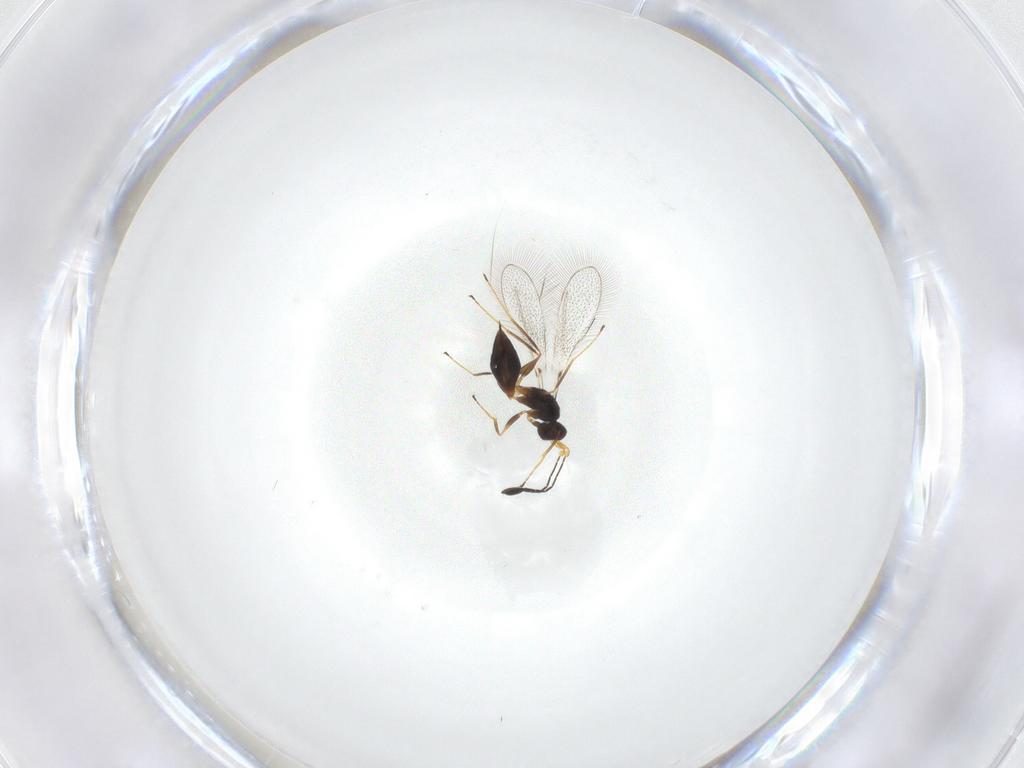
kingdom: Animalia
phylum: Arthropoda
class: Insecta
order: Hymenoptera
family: Mymaridae
